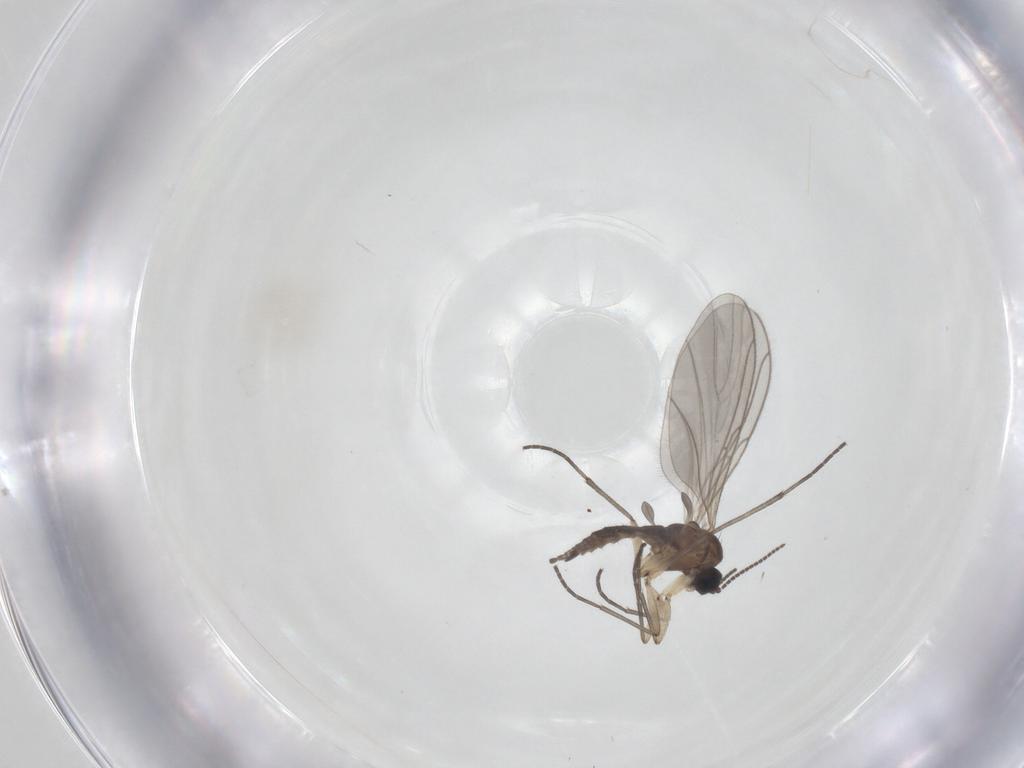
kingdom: Animalia
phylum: Arthropoda
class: Insecta
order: Diptera
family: Sciaridae
